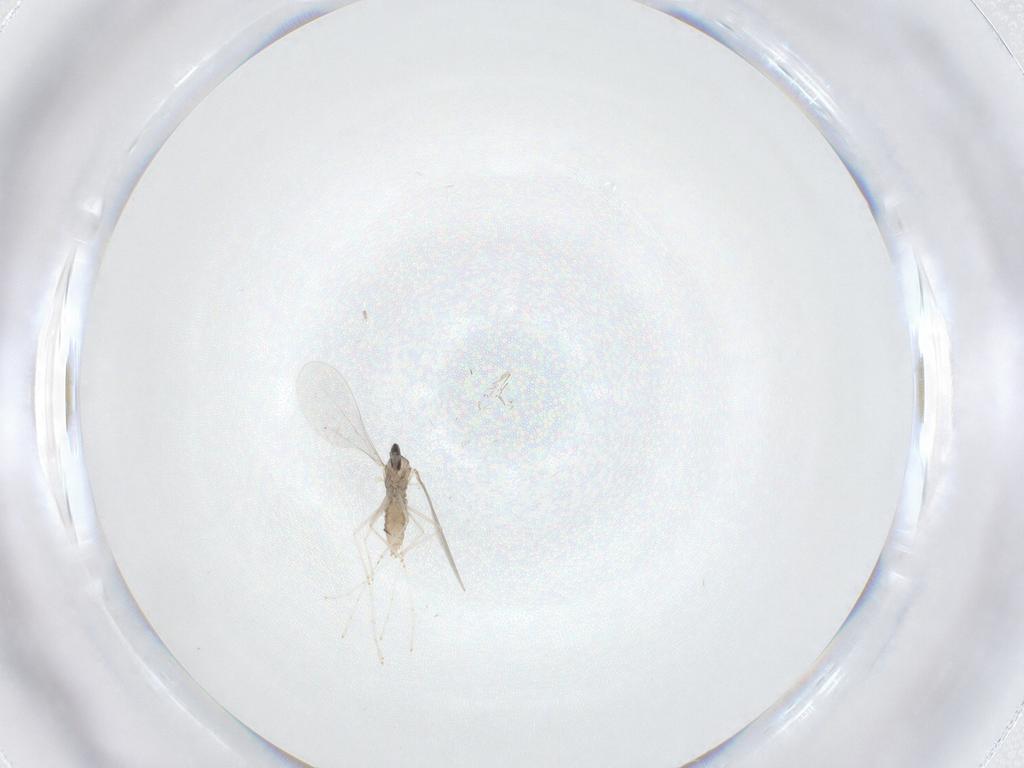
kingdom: Animalia
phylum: Arthropoda
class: Insecta
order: Diptera
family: Cecidomyiidae
